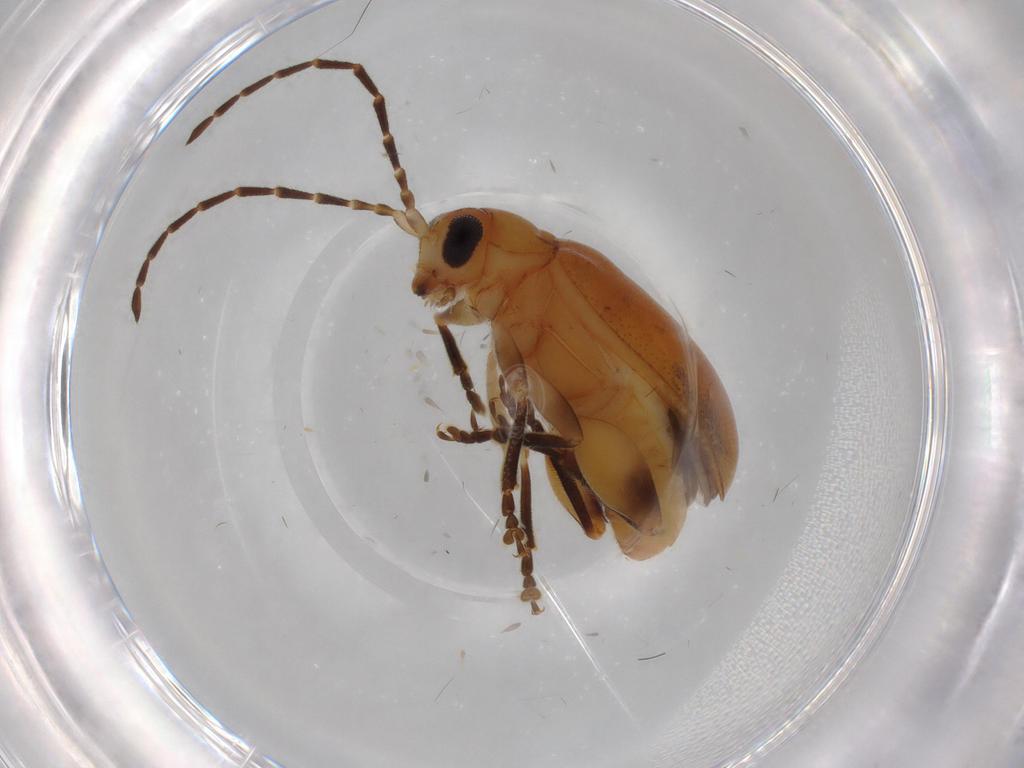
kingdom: Animalia
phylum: Arthropoda
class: Insecta
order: Coleoptera
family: Chrysomelidae
